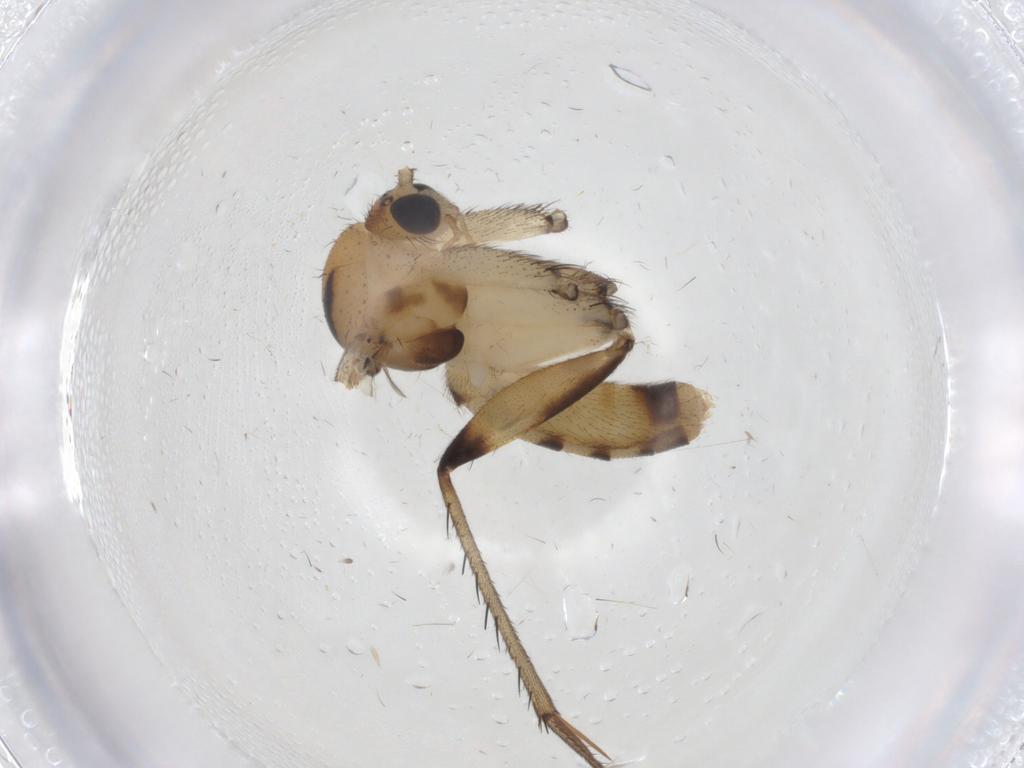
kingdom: Animalia
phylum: Arthropoda
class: Insecta
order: Diptera
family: Mycetophilidae
